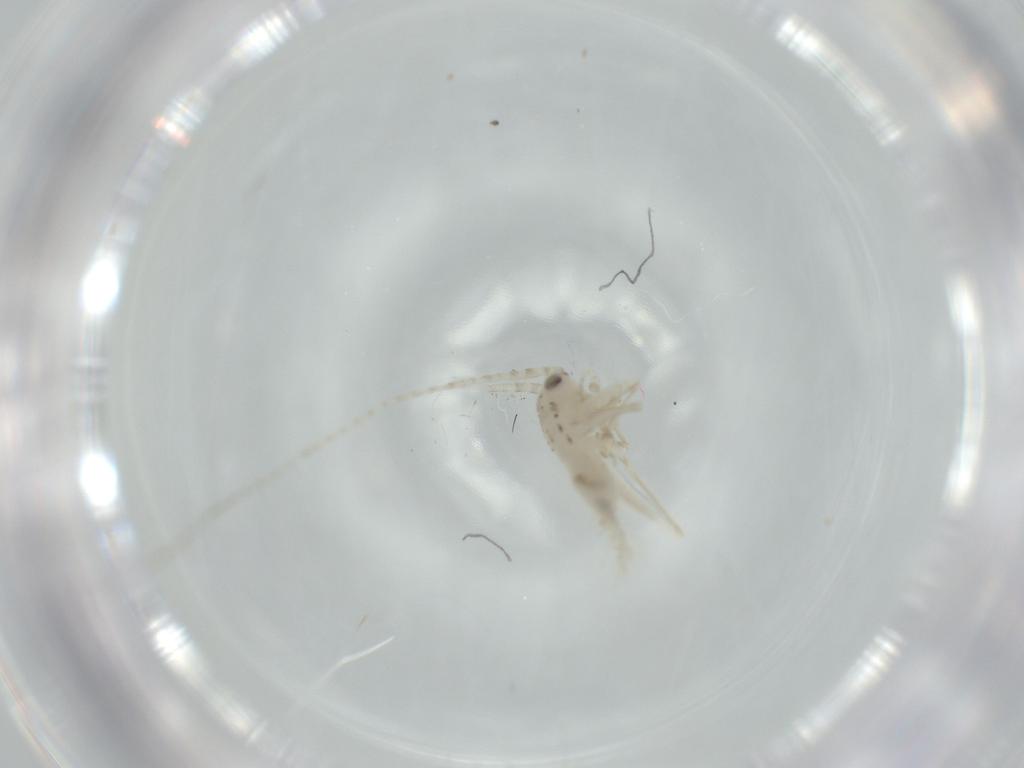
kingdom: Animalia
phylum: Arthropoda
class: Insecta
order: Orthoptera
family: Trigonidiidae
